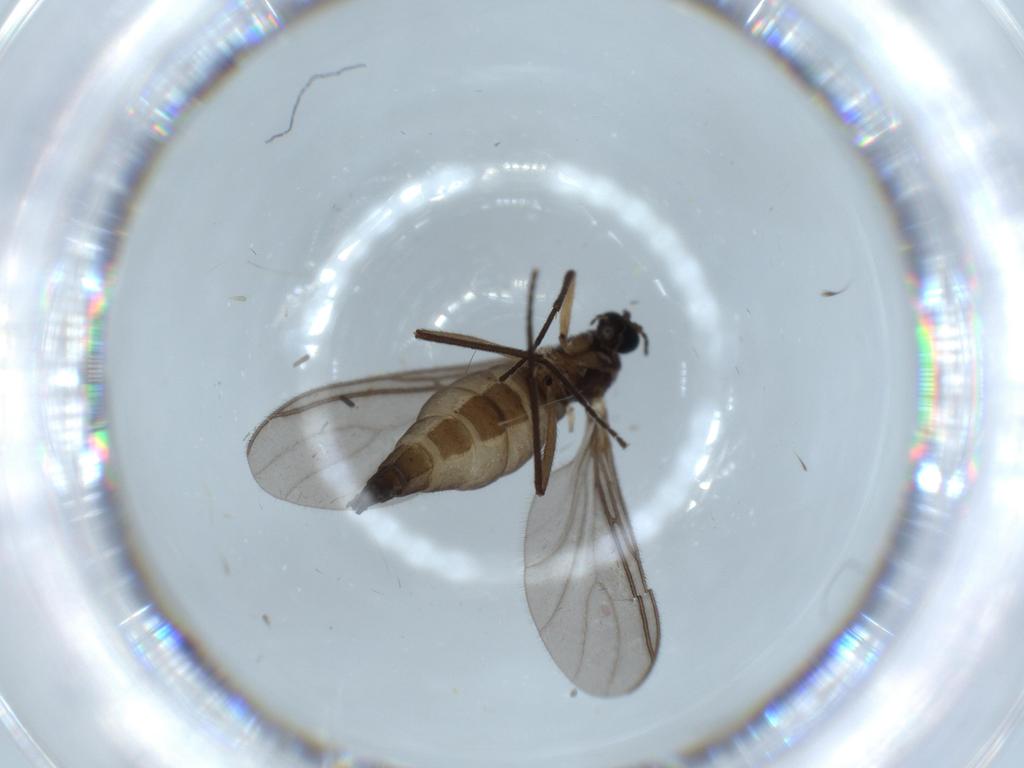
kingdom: Animalia
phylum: Arthropoda
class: Insecta
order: Diptera
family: Sciaridae
